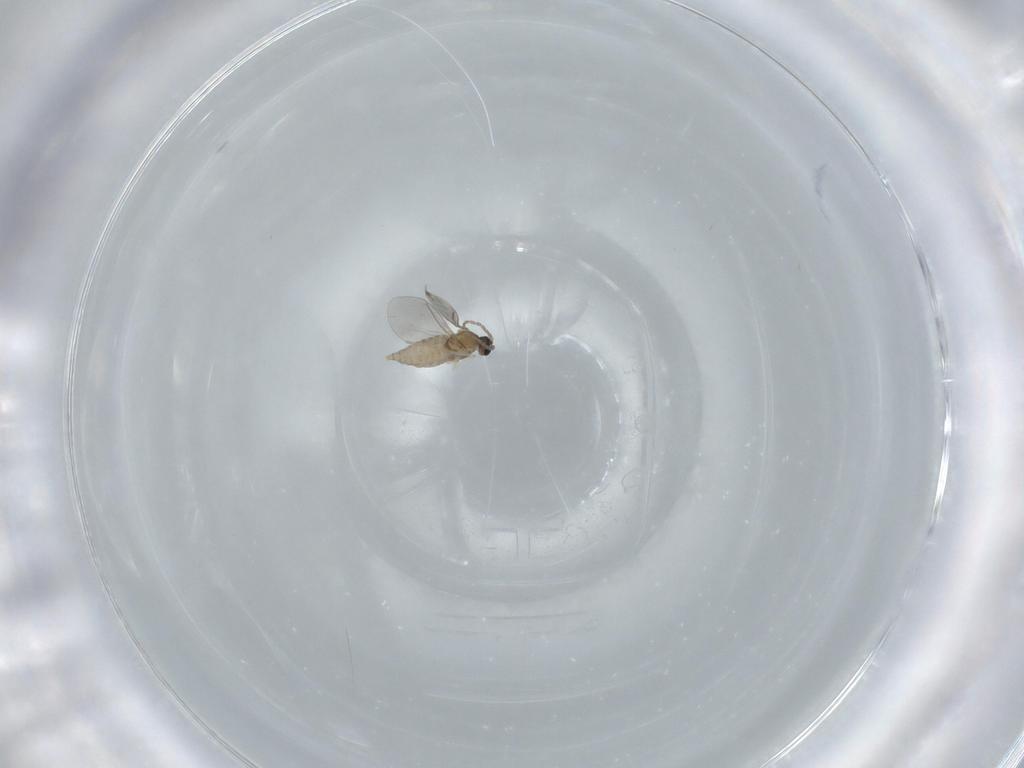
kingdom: Animalia
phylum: Arthropoda
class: Insecta
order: Diptera
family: Cecidomyiidae
